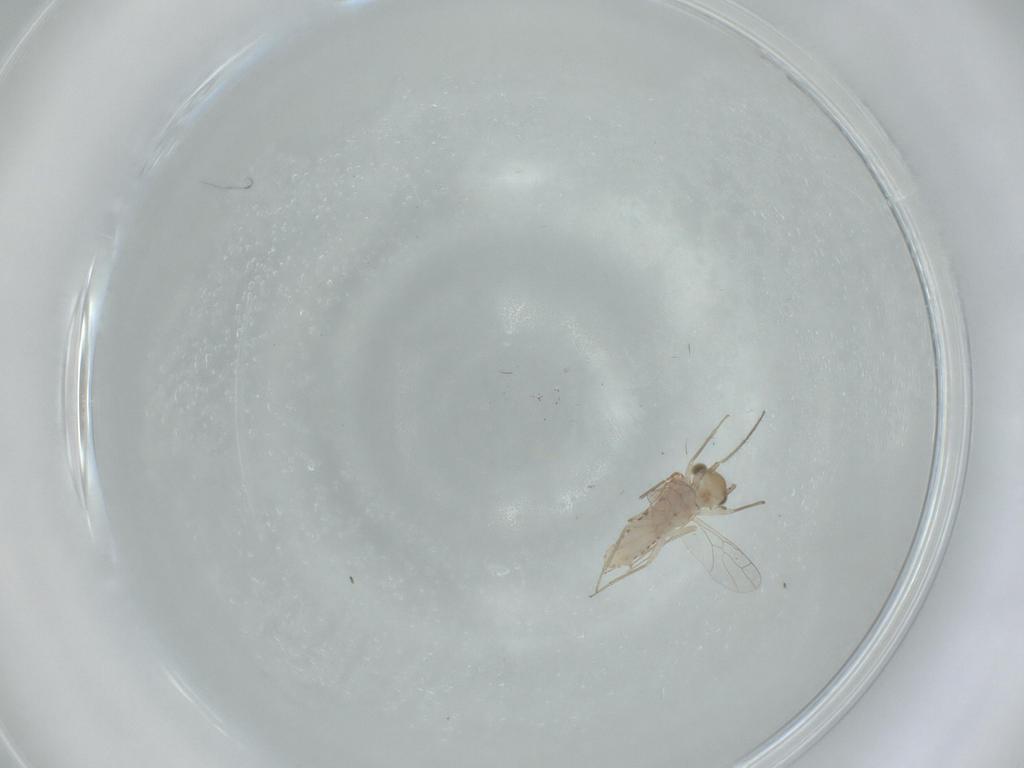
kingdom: Animalia
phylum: Arthropoda
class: Insecta
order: Psocodea
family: Lachesillidae
